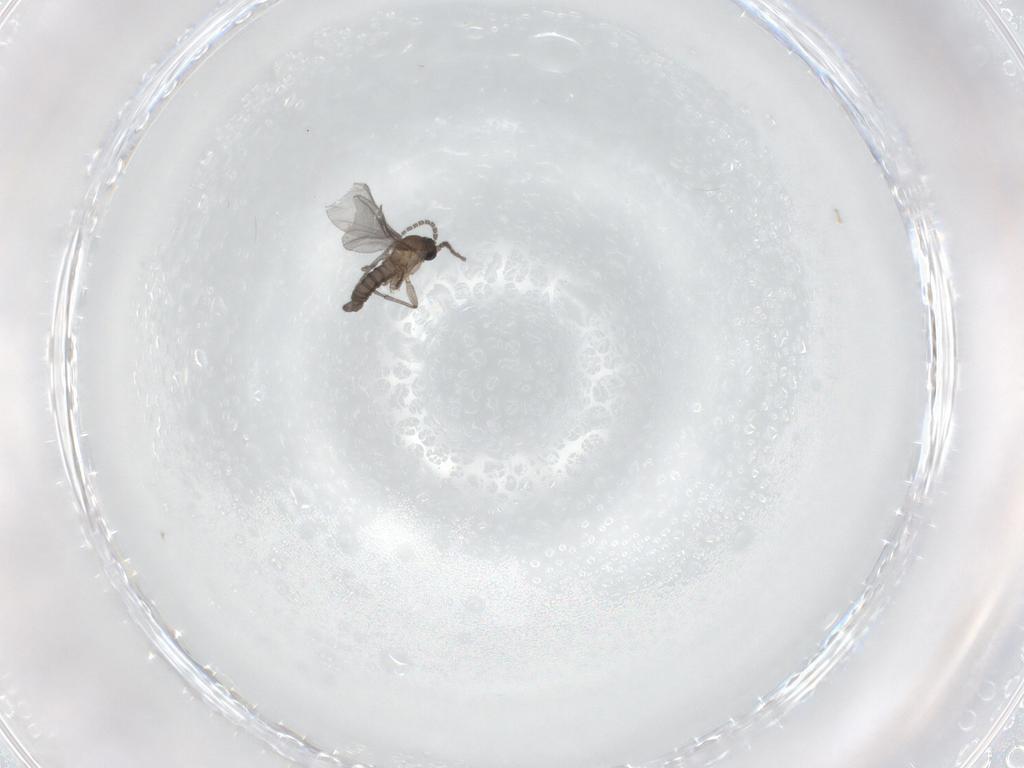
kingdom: Animalia
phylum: Arthropoda
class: Insecta
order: Diptera
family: Sciaridae
